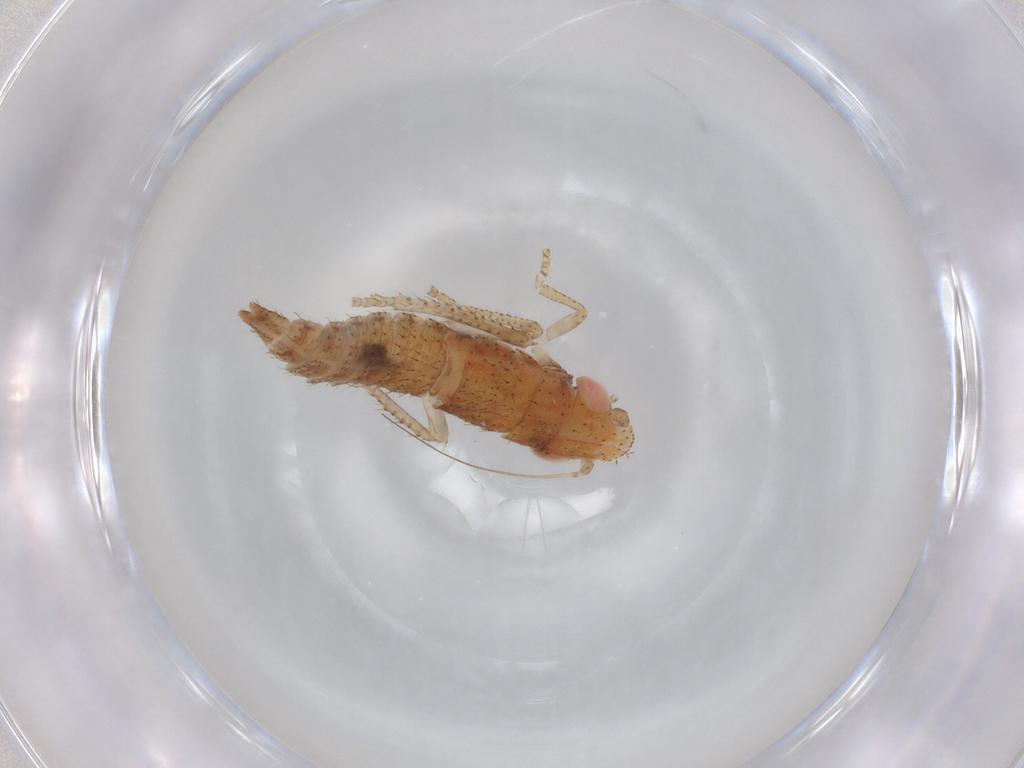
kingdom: Animalia
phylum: Arthropoda
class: Insecta
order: Hemiptera
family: Cicadellidae
